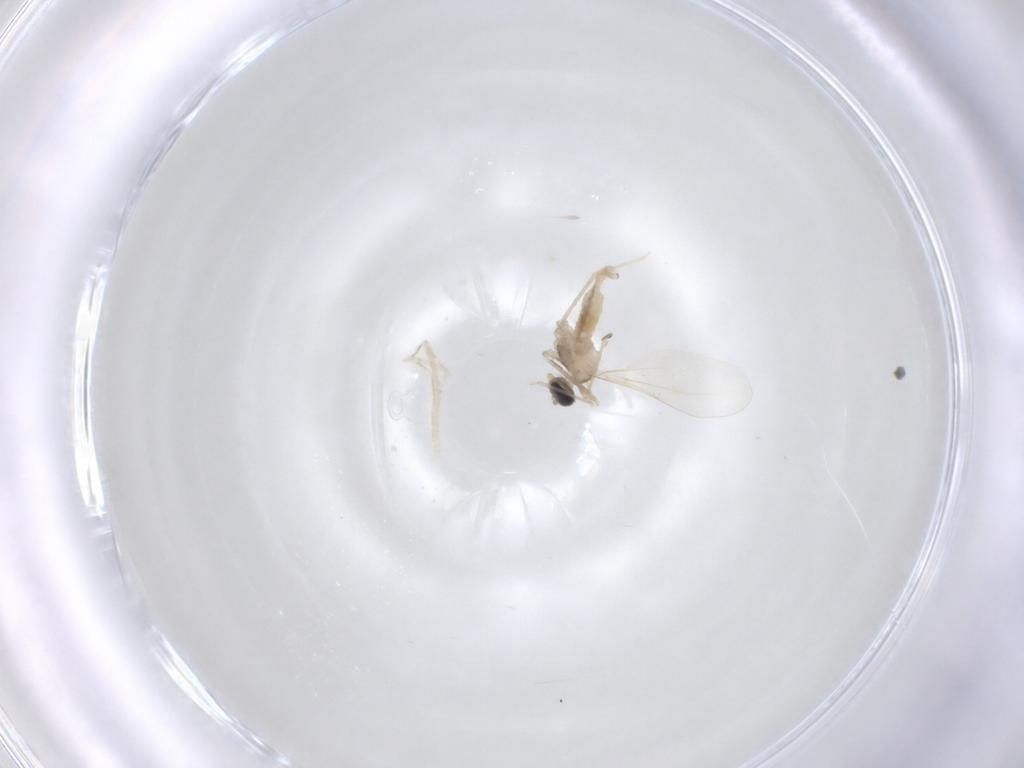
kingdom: Animalia
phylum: Arthropoda
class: Insecta
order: Diptera
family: Cecidomyiidae
